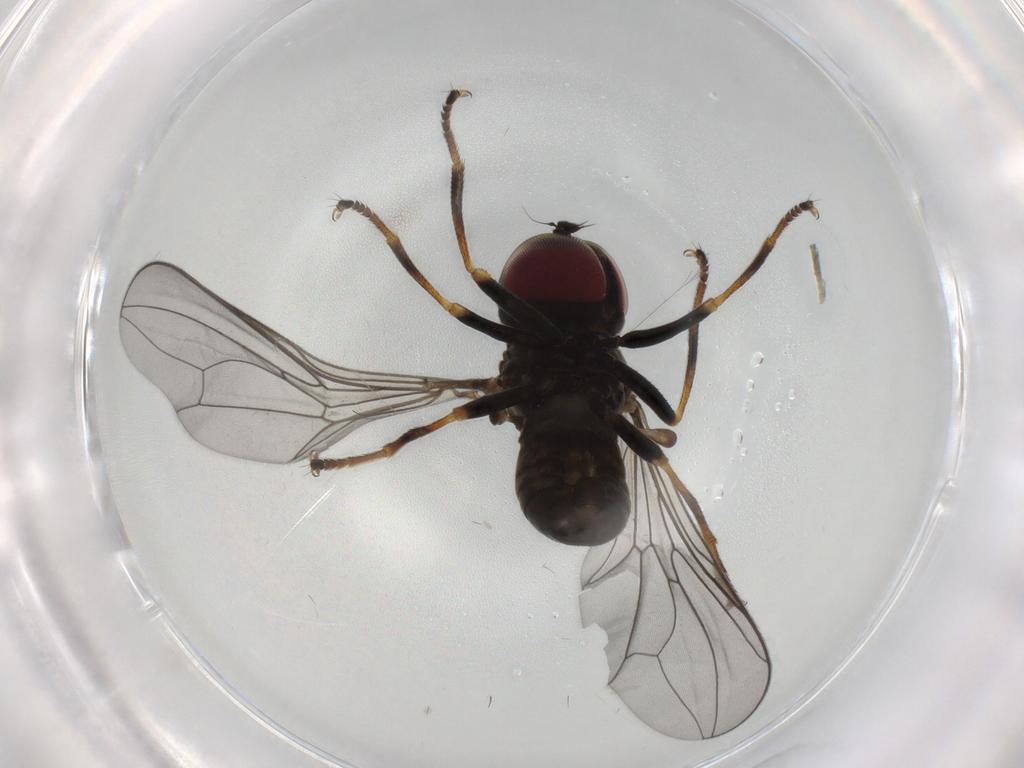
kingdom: Animalia
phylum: Arthropoda
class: Insecta
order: Diptera
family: Pipunculidae
